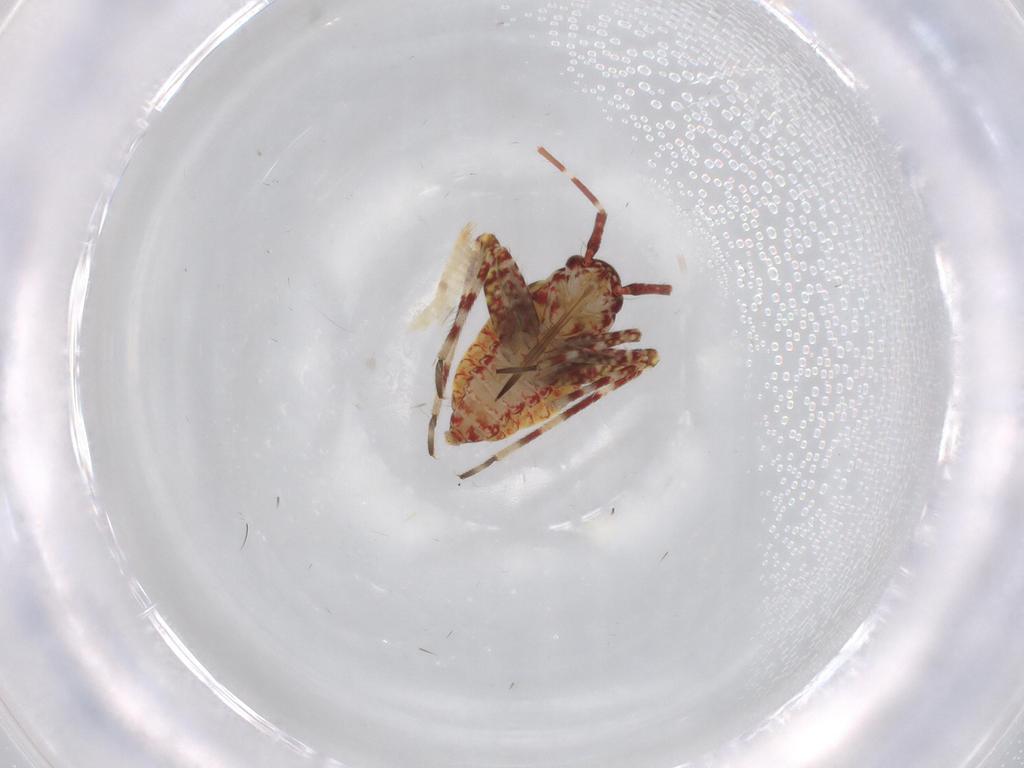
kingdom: Animalia
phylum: Arthropoda
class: Insecta
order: Hemiptera
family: Miridae
